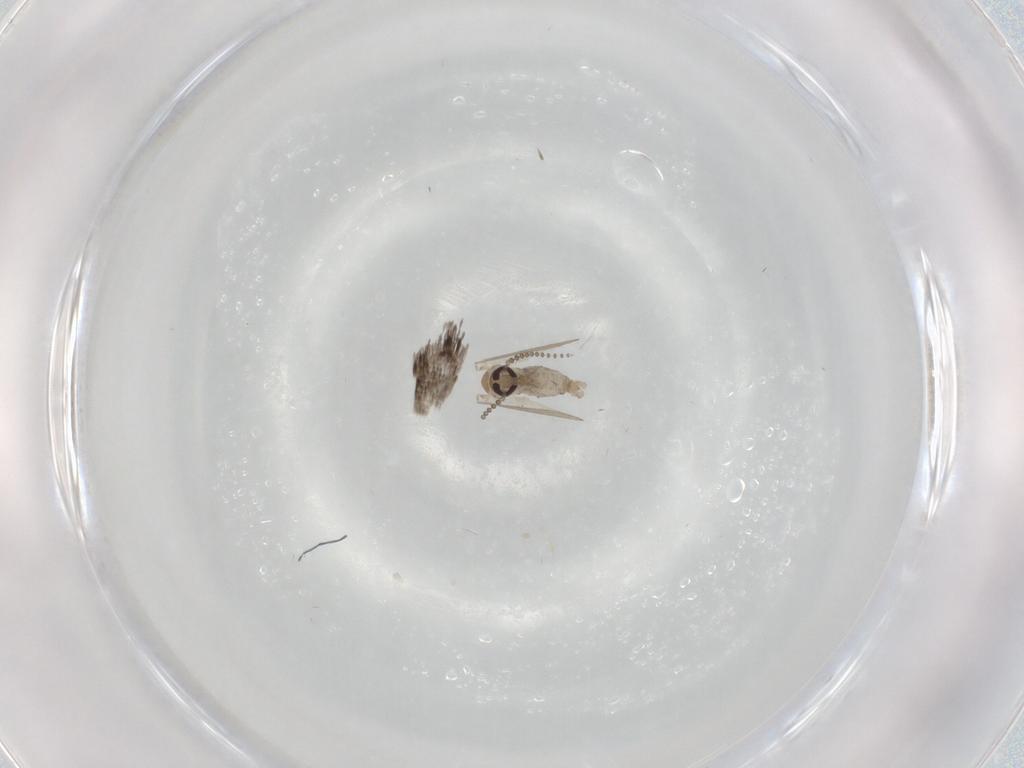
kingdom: Animalia
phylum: Arthropoda
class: Insecta
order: Diptera
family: Psychodidae
